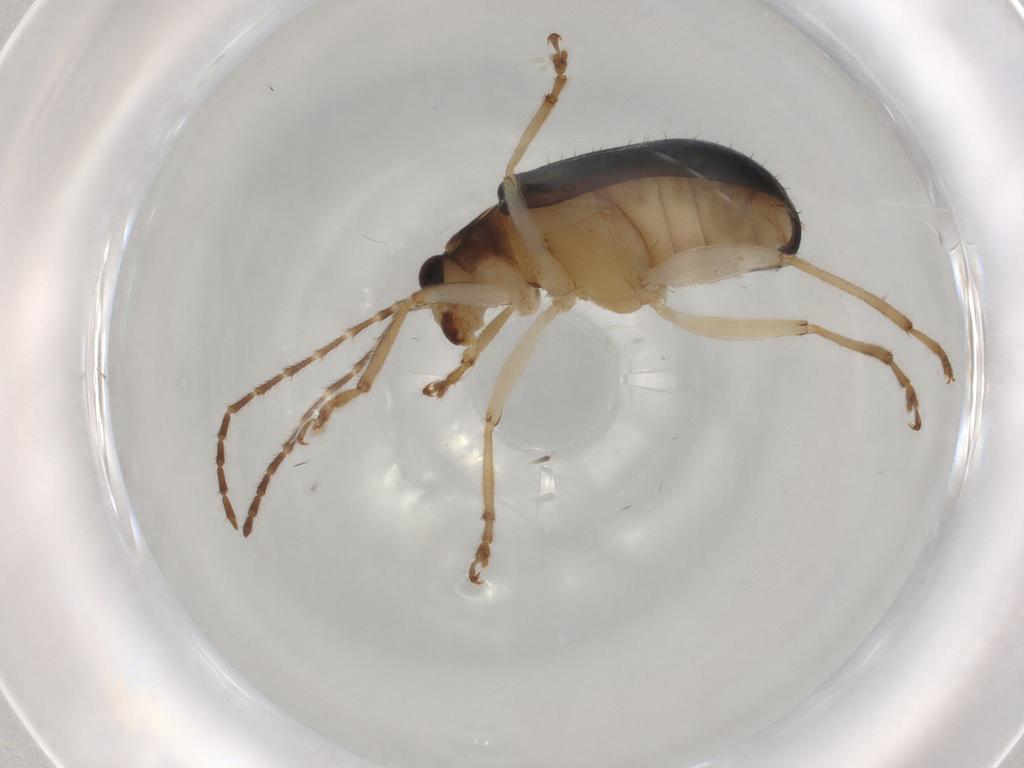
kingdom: Animalia
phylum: Arthropoda
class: Insecta
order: Coleoptera
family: Chrysomelidae
